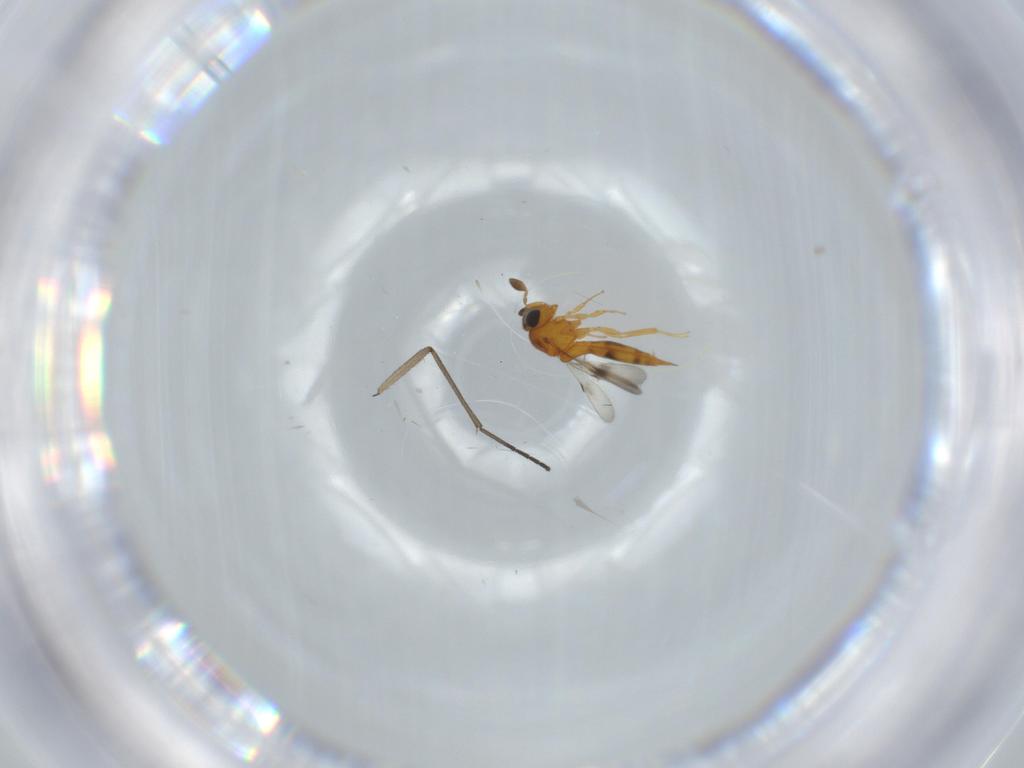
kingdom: Animalia
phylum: Arthropoda
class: Insecta
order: Hymenoptera
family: Scelionidae
